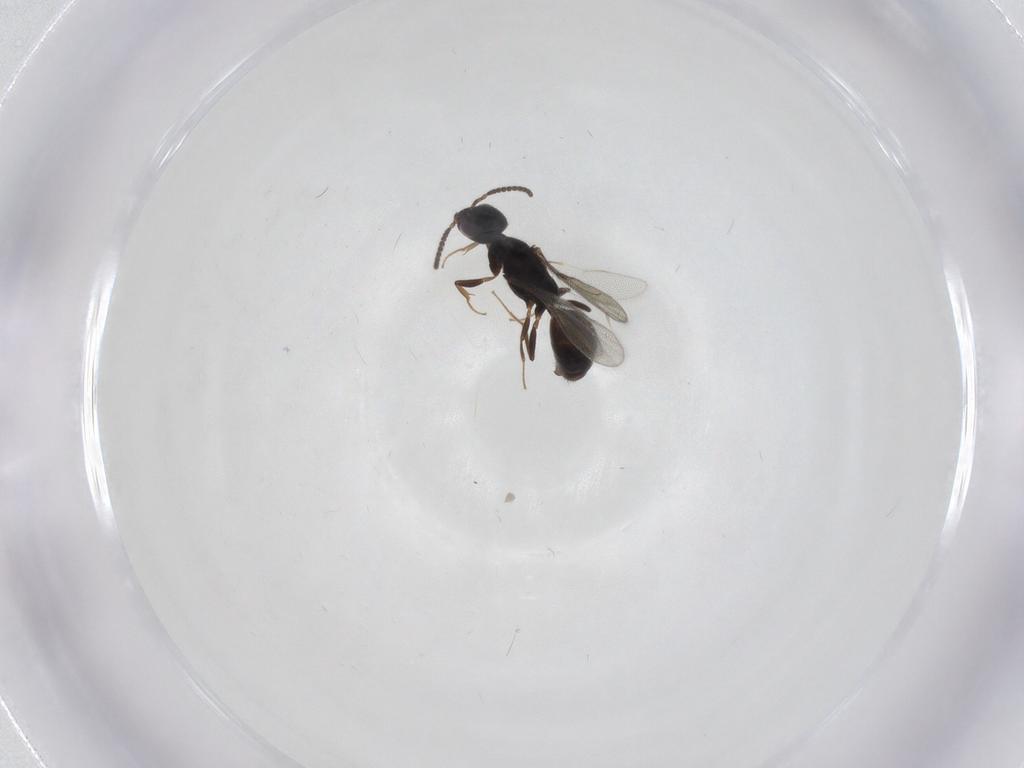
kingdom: Animalia
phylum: Arthropoda
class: Insecta
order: Hymenoptera
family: Bethylidae
